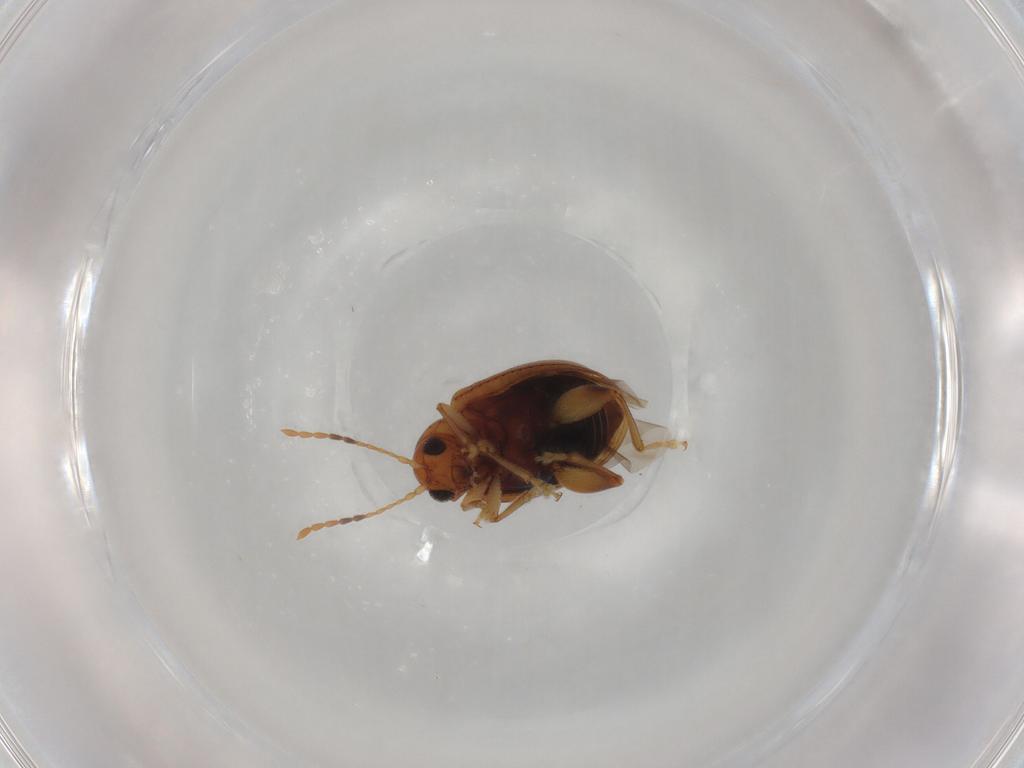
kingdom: Animalia
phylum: Arthropoda
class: Insecta
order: Coleoptera
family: Chrysomelidae
